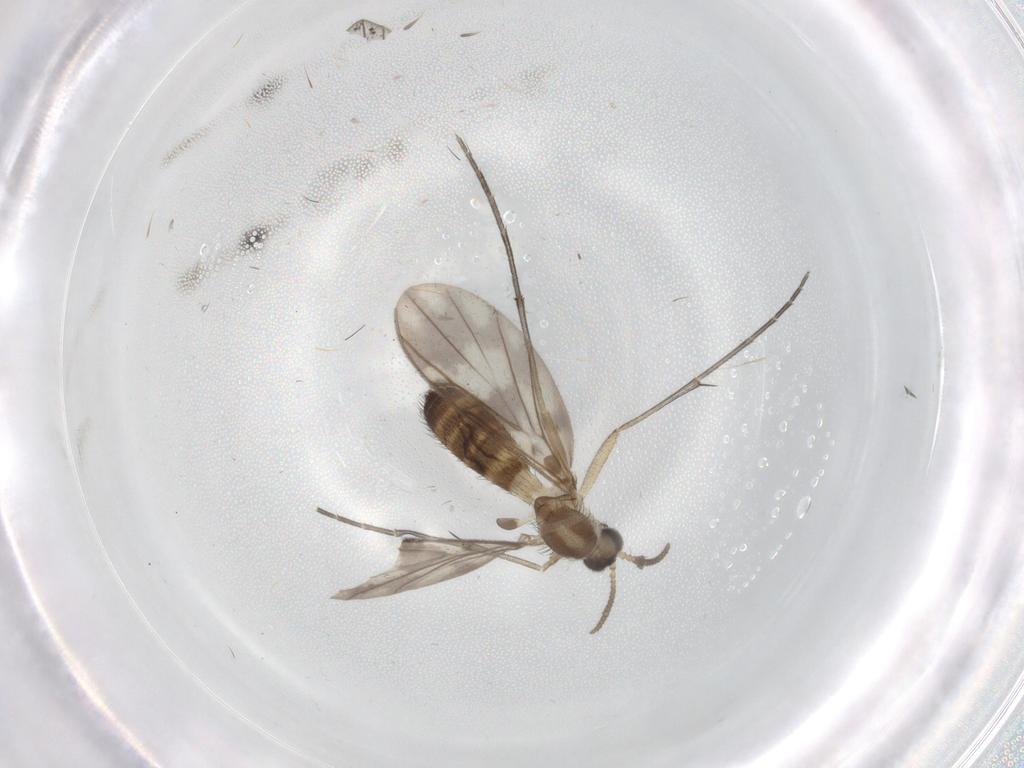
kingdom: Animalia
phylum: Arthropoda
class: Insecta
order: Diptera
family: Keroplatidae
